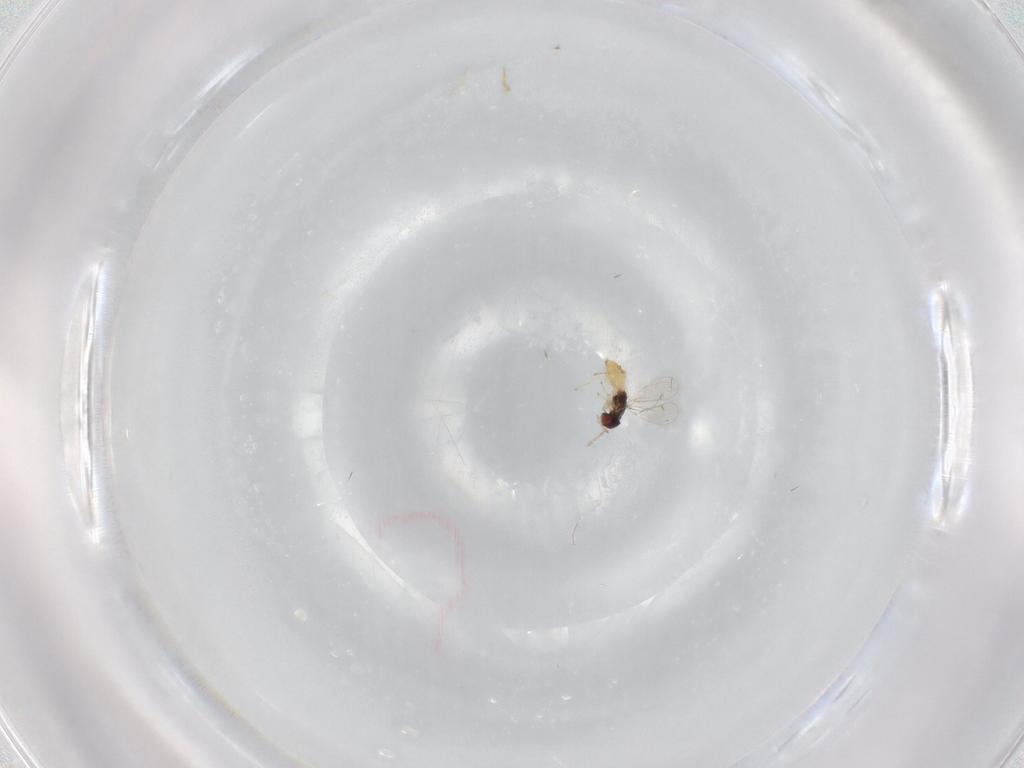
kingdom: Animalia
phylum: Arthropoda
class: Insecta
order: Hymenoptera
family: Eulophidae
